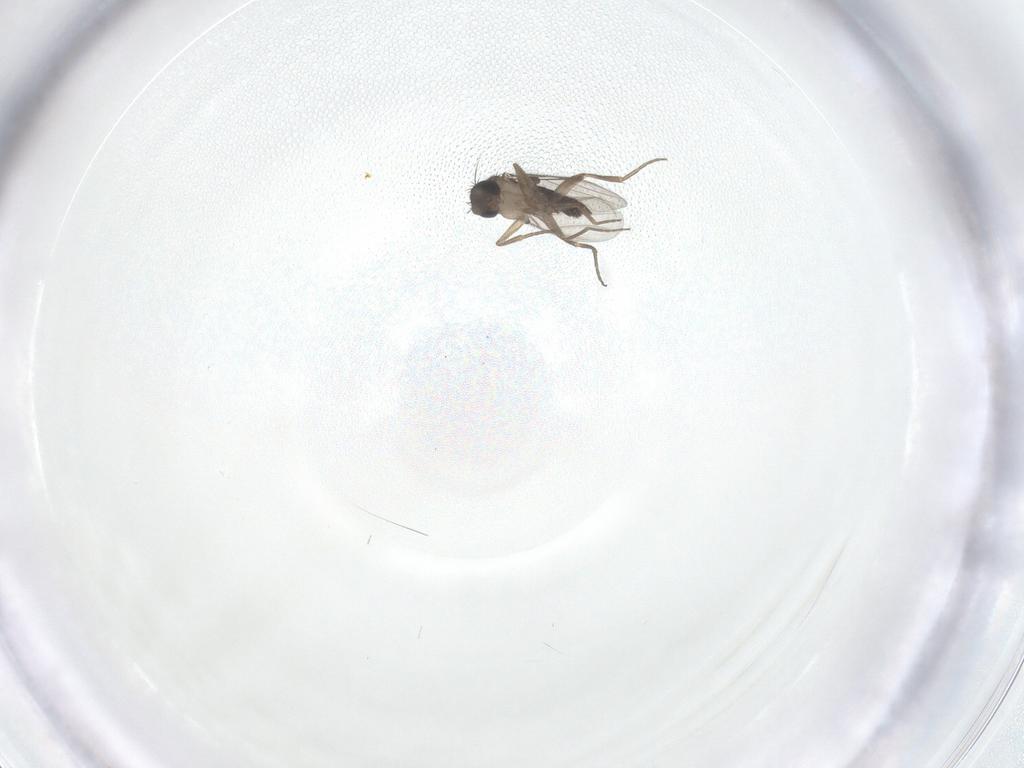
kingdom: Animalia
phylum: Arthropoda
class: Insecta
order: Diptera
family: Phoridae
